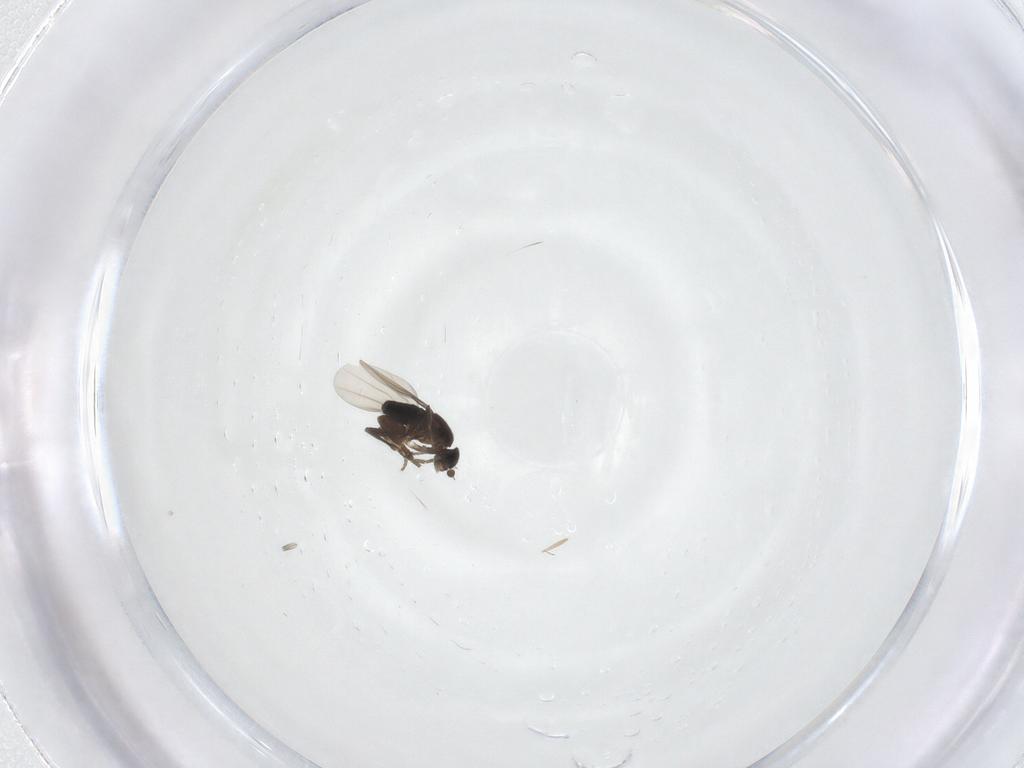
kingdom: Animalia
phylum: Arthropoda
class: Insecta
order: Diptera
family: Phoridae
